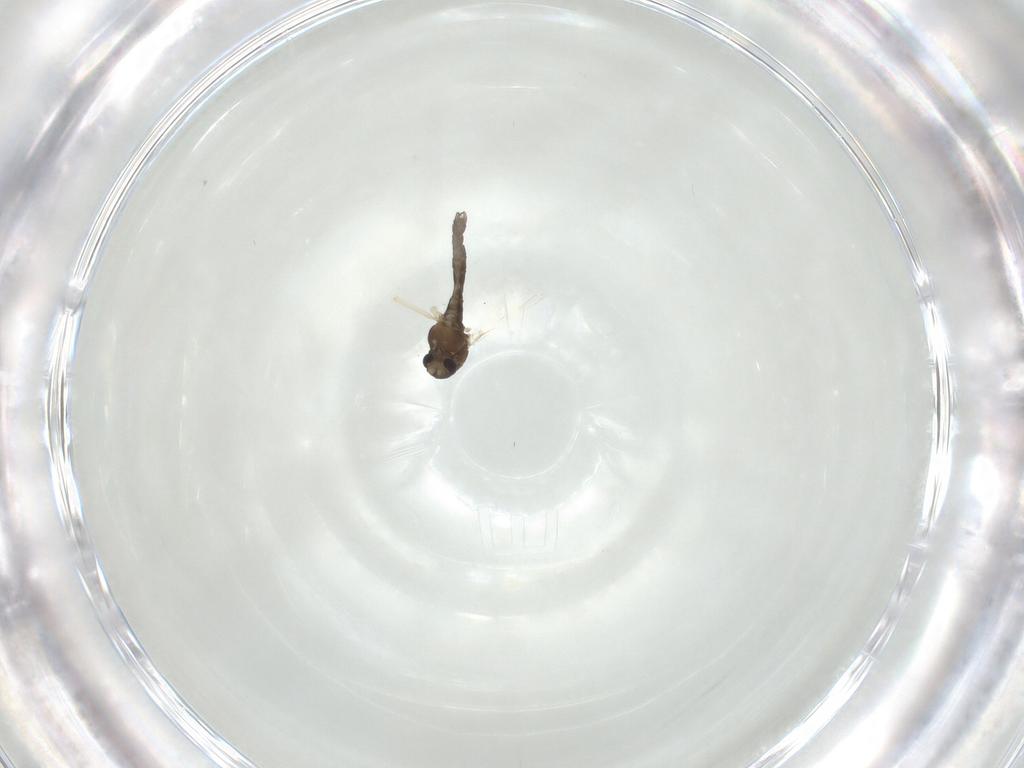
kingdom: Animalia
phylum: Arthropoda
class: Insecta
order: Diptera
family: Chironomidae
